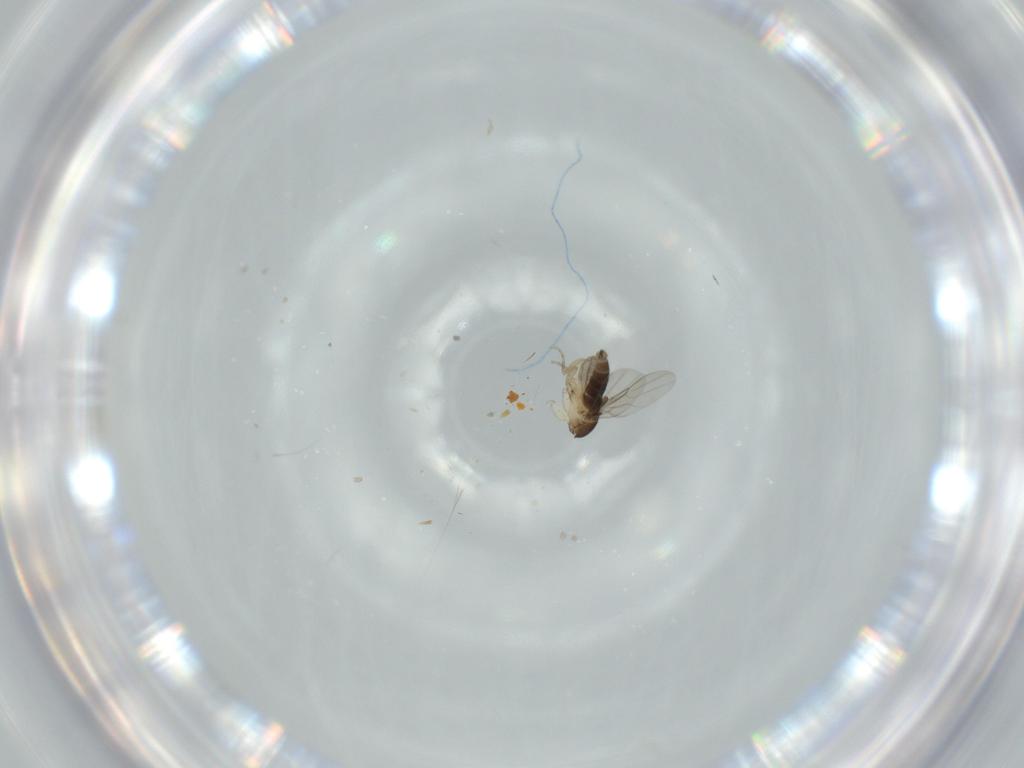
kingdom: Animalia
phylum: Arthropoda
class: Insecta
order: Diptera
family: Phoridae
